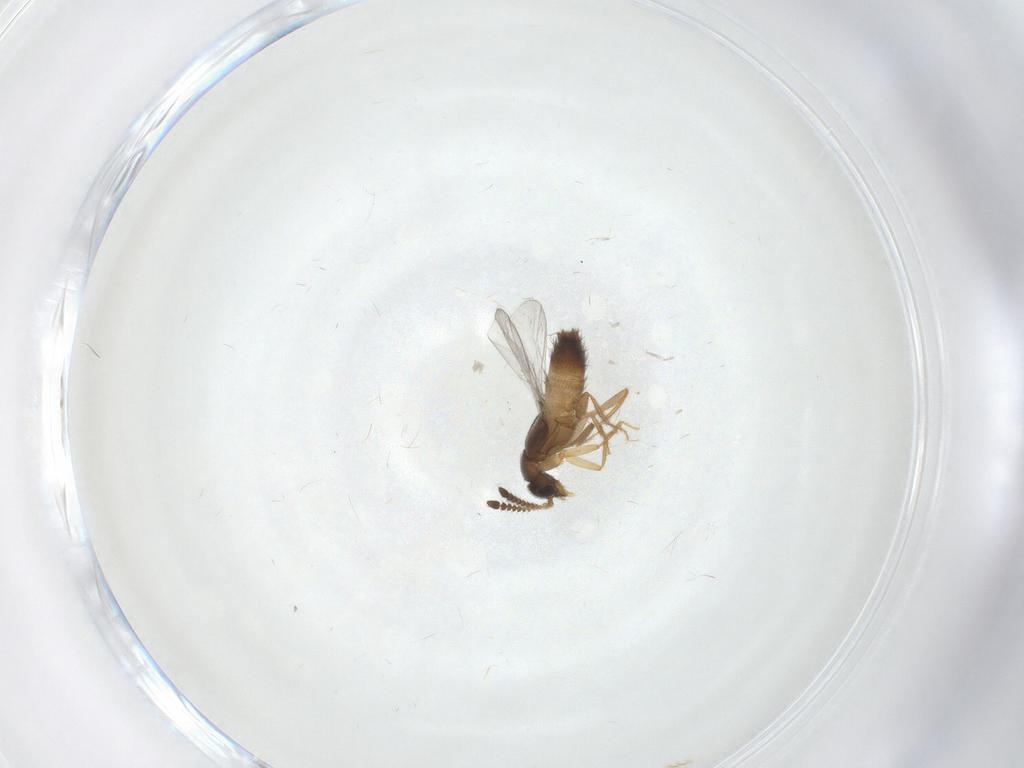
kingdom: Animalia
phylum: Arthropoda
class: Insecta
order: Coleoptera
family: Staphylinidae
